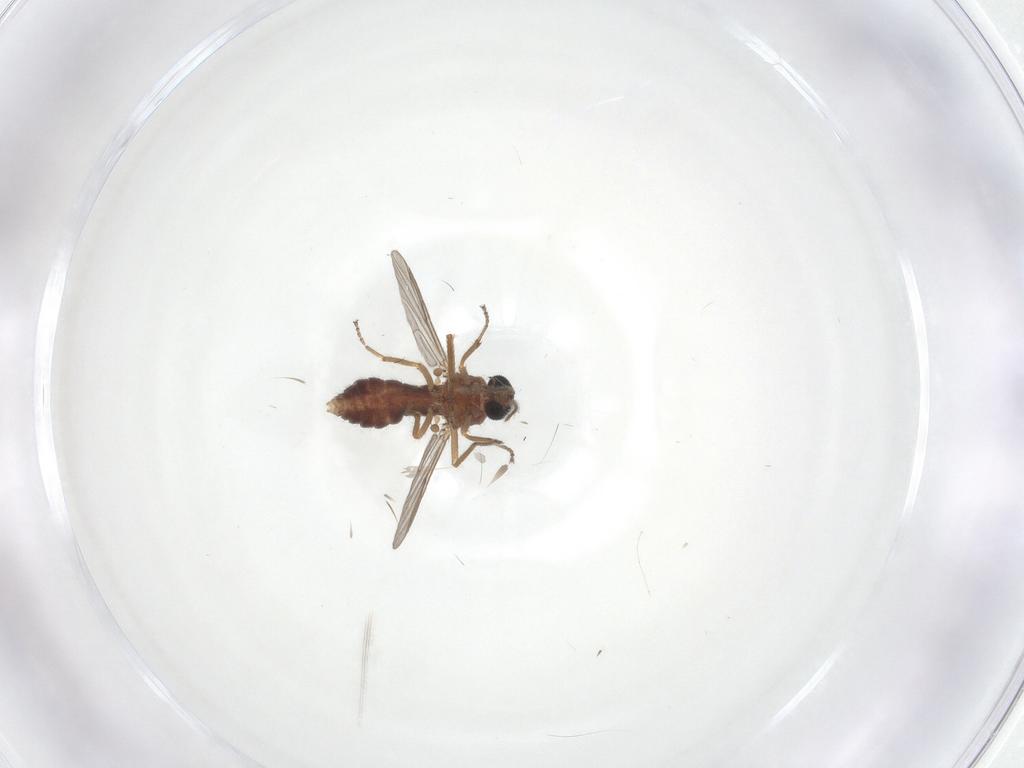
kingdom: Animalia
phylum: Arthropoda
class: Insecta
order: Diptera
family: Ceratopogonidae
